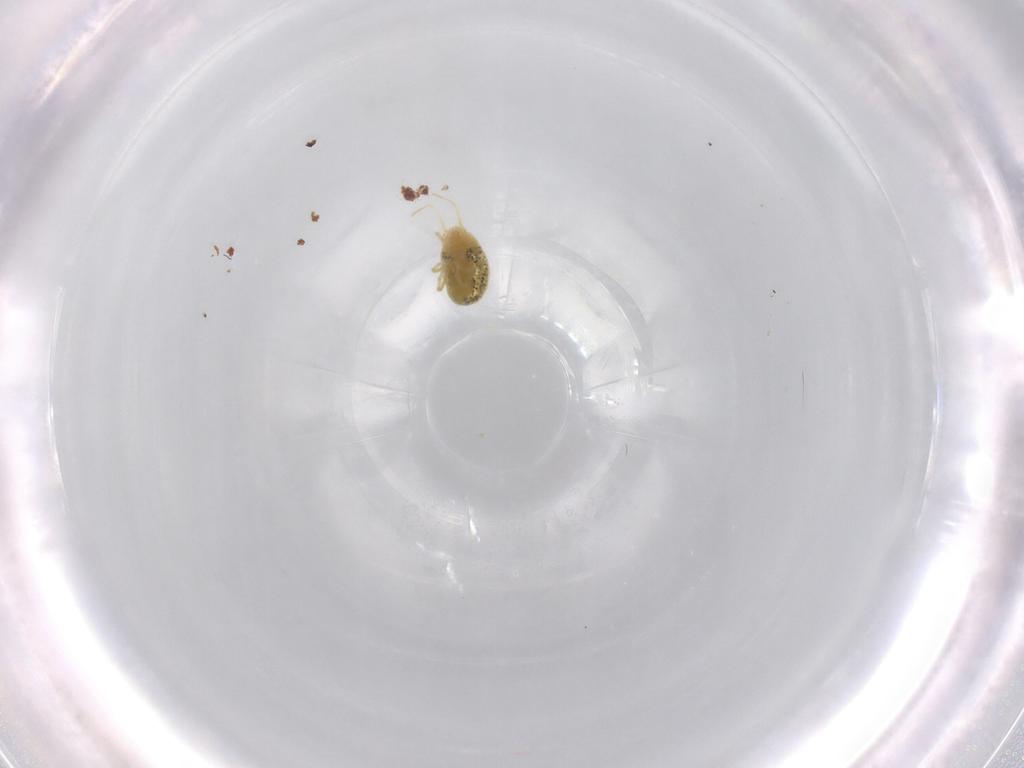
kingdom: Animalia
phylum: Arthropoda
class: Arachnida
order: Trombidiformes
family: Tetranychidae
